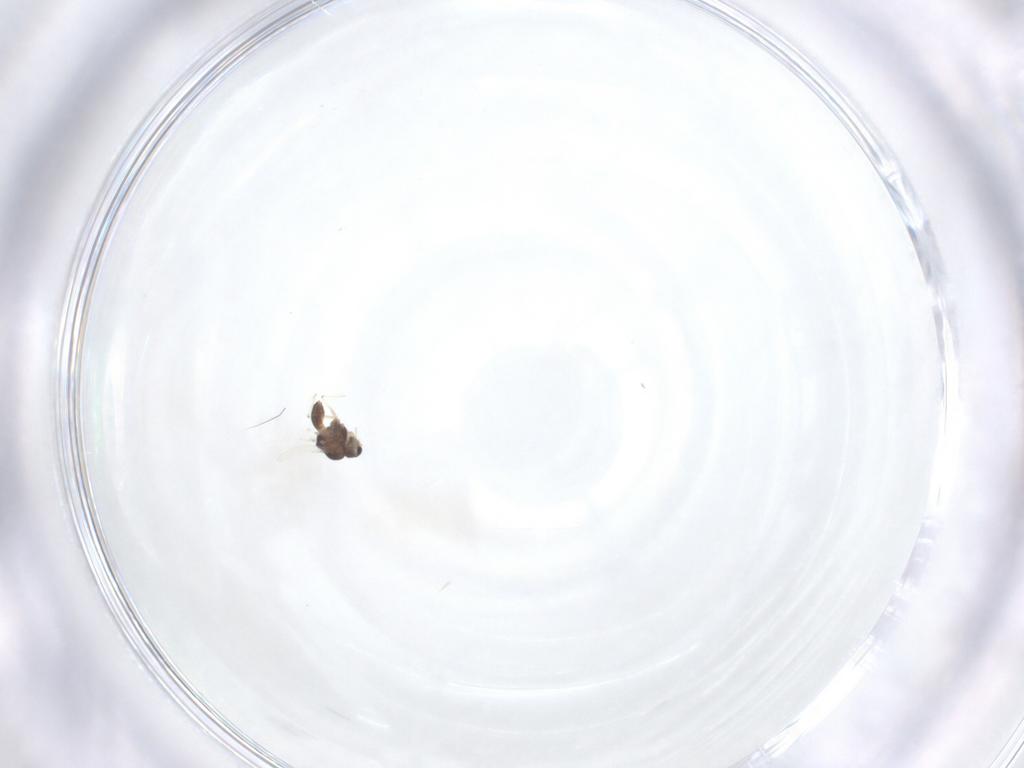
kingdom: Animalia
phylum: Arthropoda
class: Insecta
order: Diptera
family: Chironomidae
